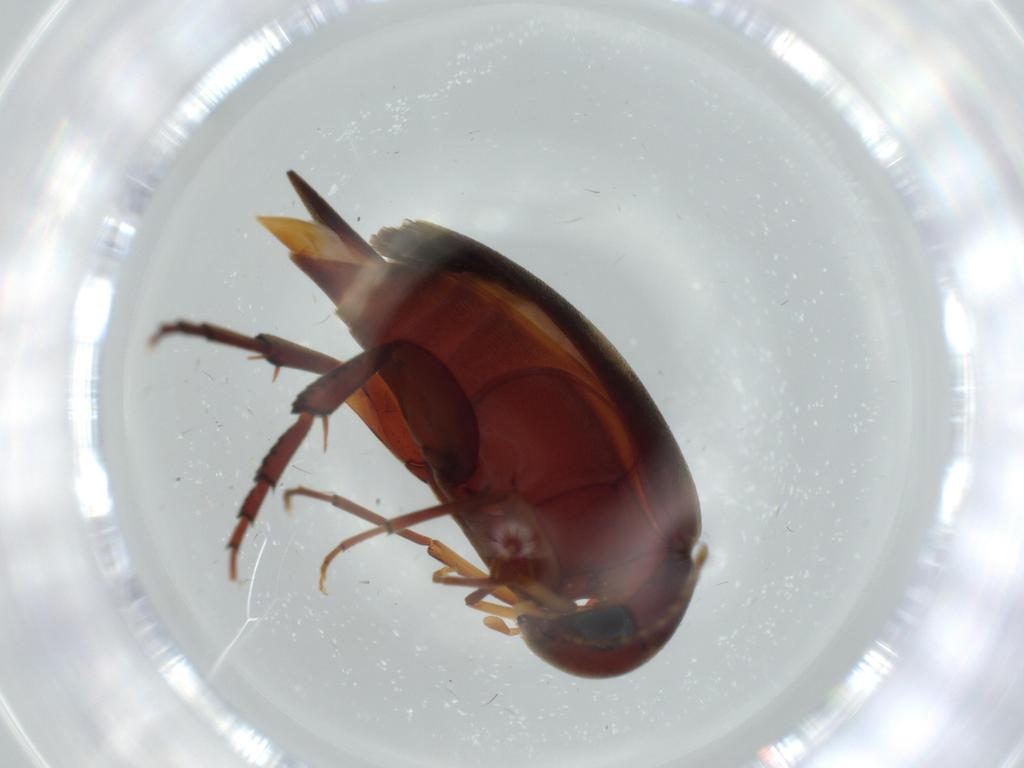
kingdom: Animalia
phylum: Arthropoda
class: Insecta
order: Coleoptera
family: Mordellidae
